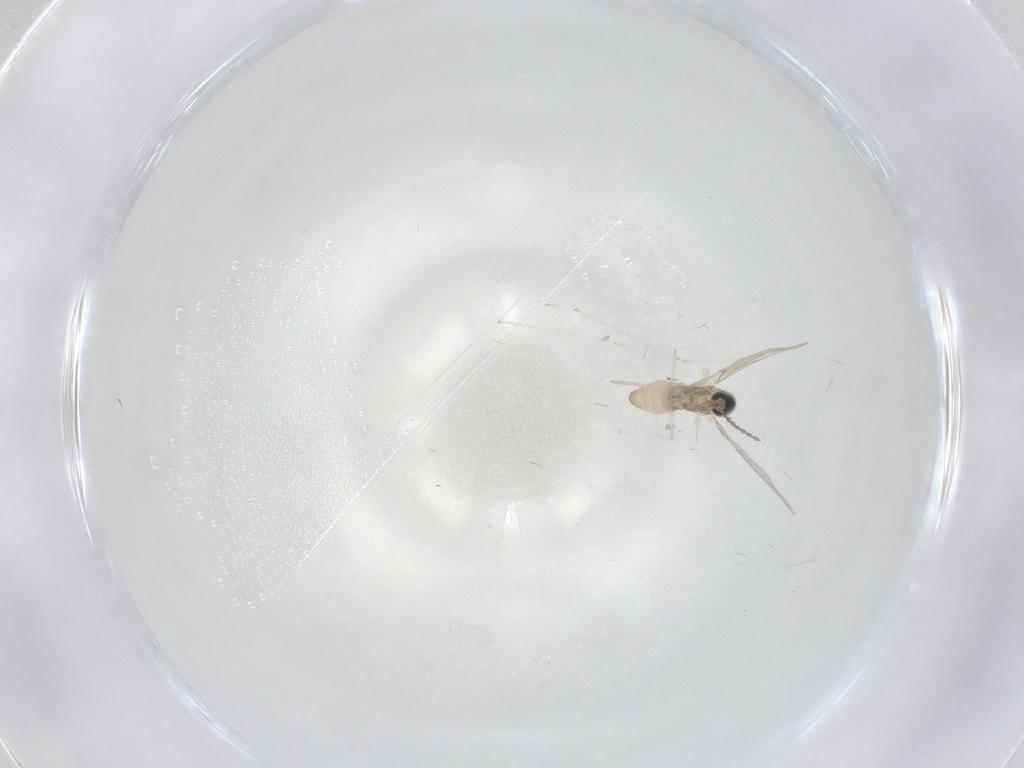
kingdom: Animalia
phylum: Arthropoda
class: Insecta
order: Diptera
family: Cecidomyiidae
